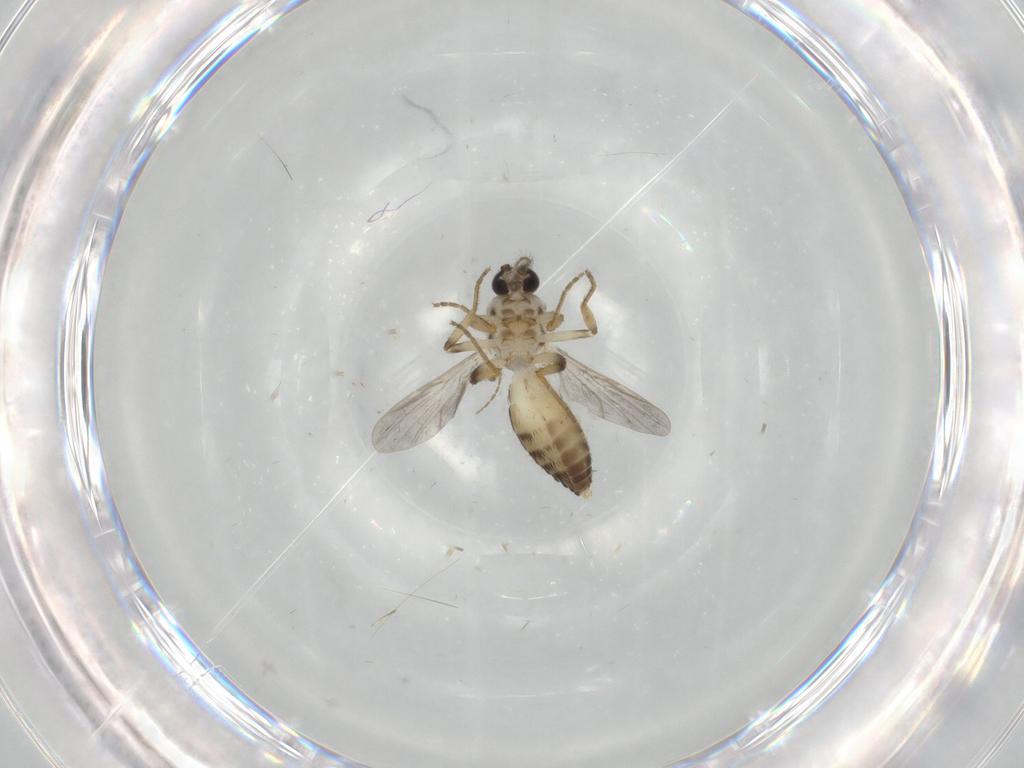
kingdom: Animalia
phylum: Arthropoda
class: Insecta
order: Diptera
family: Ceratopogonidae
